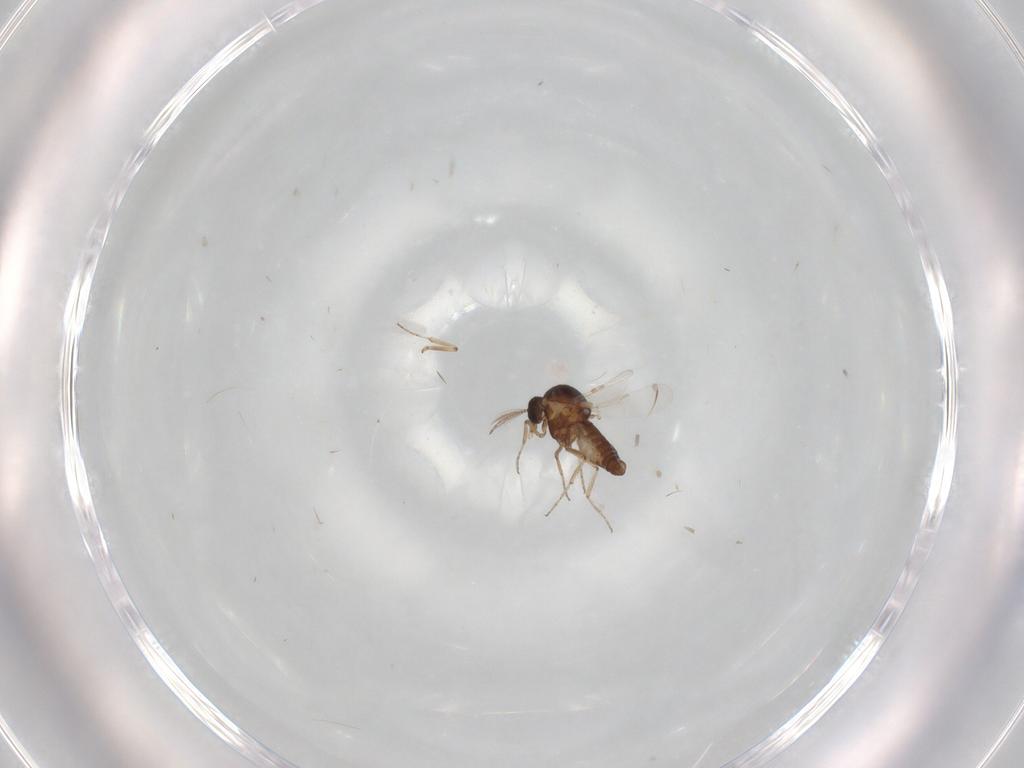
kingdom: Animalia
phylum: Arthropoda
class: Insecta
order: Diptera
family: Ceratopogonidae
